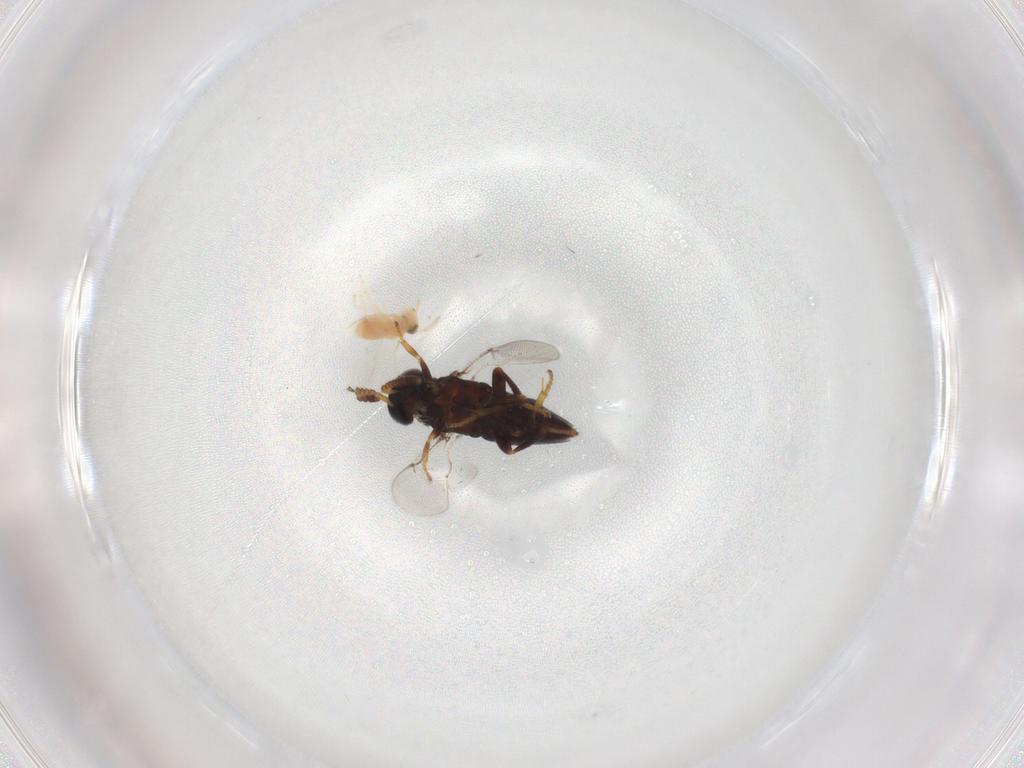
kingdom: Animalia
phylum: Arthropoda
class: Insecta
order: Hymenoptera
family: Aphelinidae
